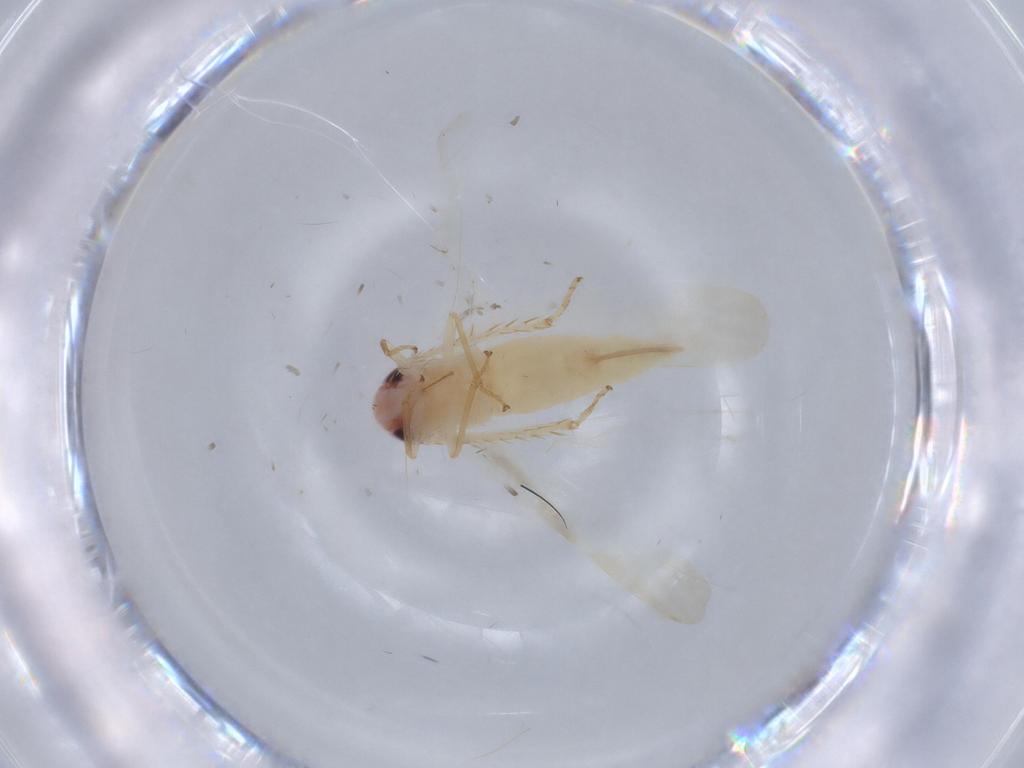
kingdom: Animalia
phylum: Arthropoda
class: Insecta
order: Hemiptera
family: Cicadellidae
